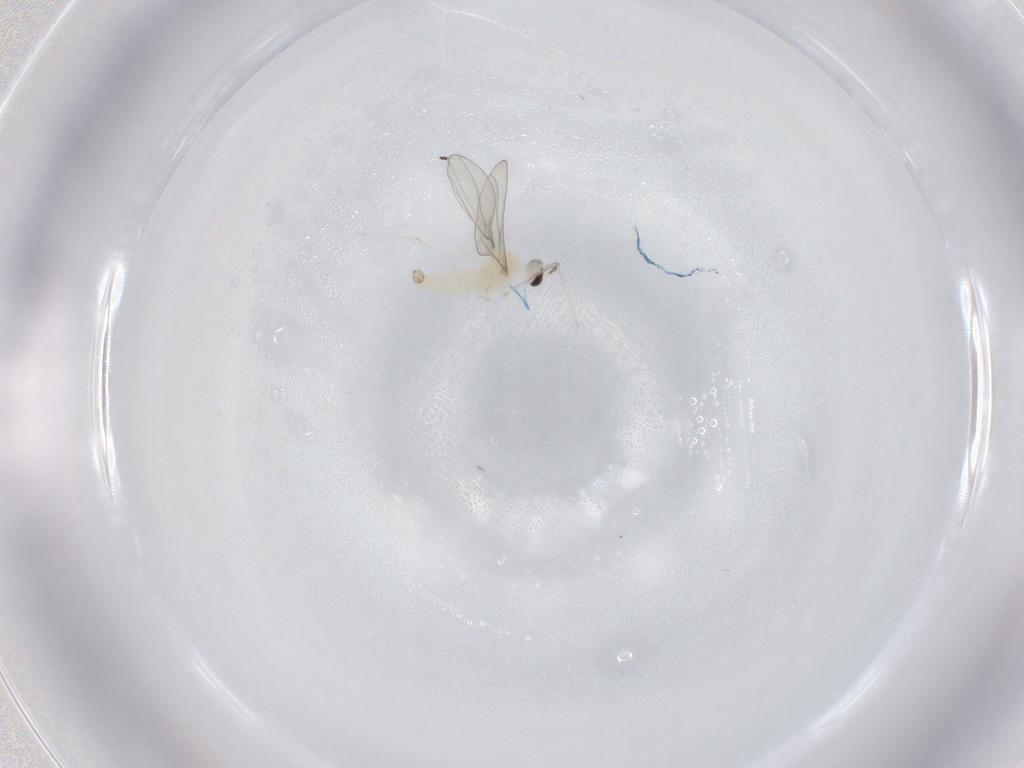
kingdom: Animalia
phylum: Arthropoda
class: Insecta
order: Diptera
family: Cecidomyiidae
